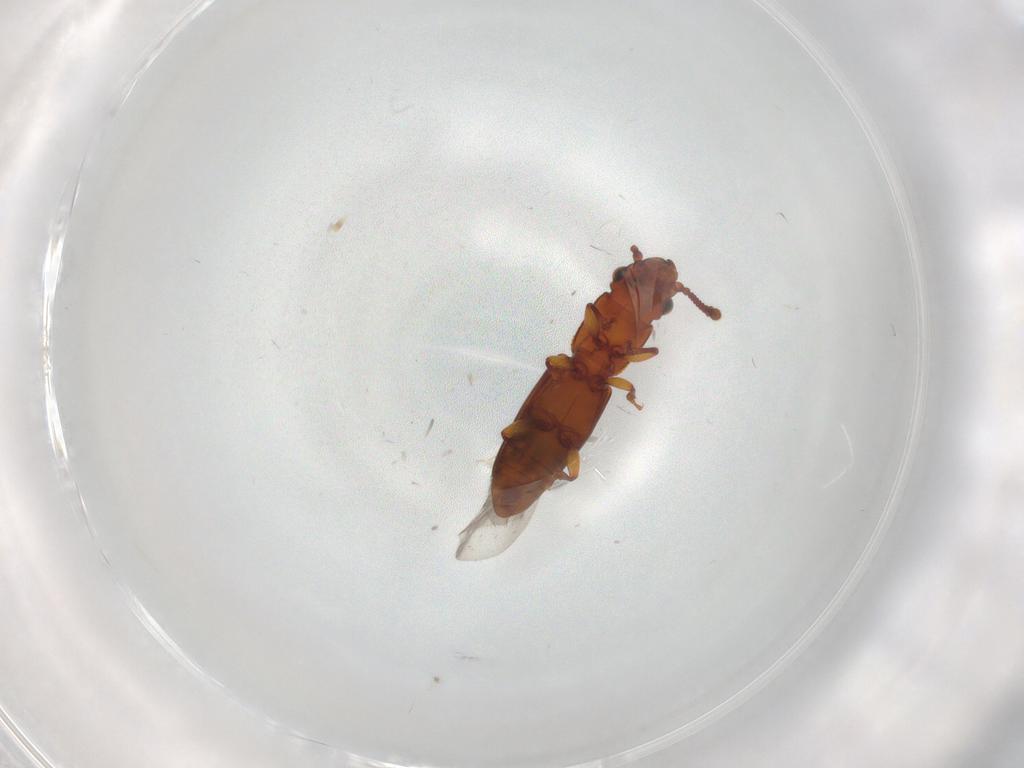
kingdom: Animalia
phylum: Arthropoda
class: Insecta
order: Coleoptera
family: Monotomidae
